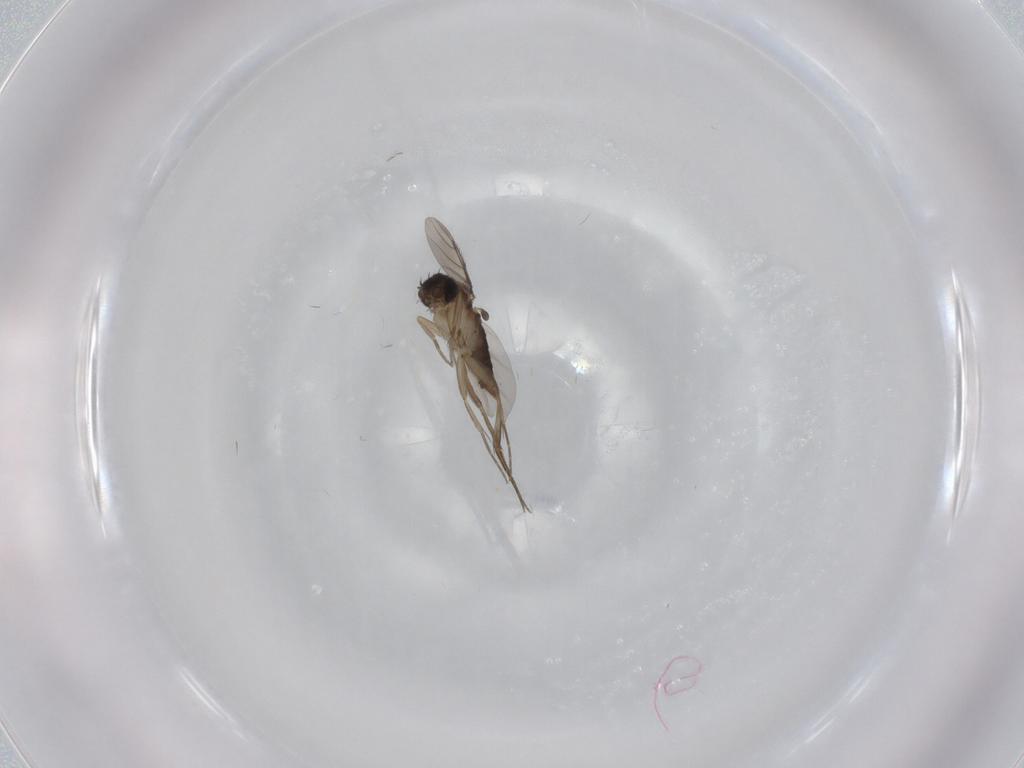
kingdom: Animalia
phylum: Arthropoda
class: Insecta
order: Diptera
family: Phoridae
